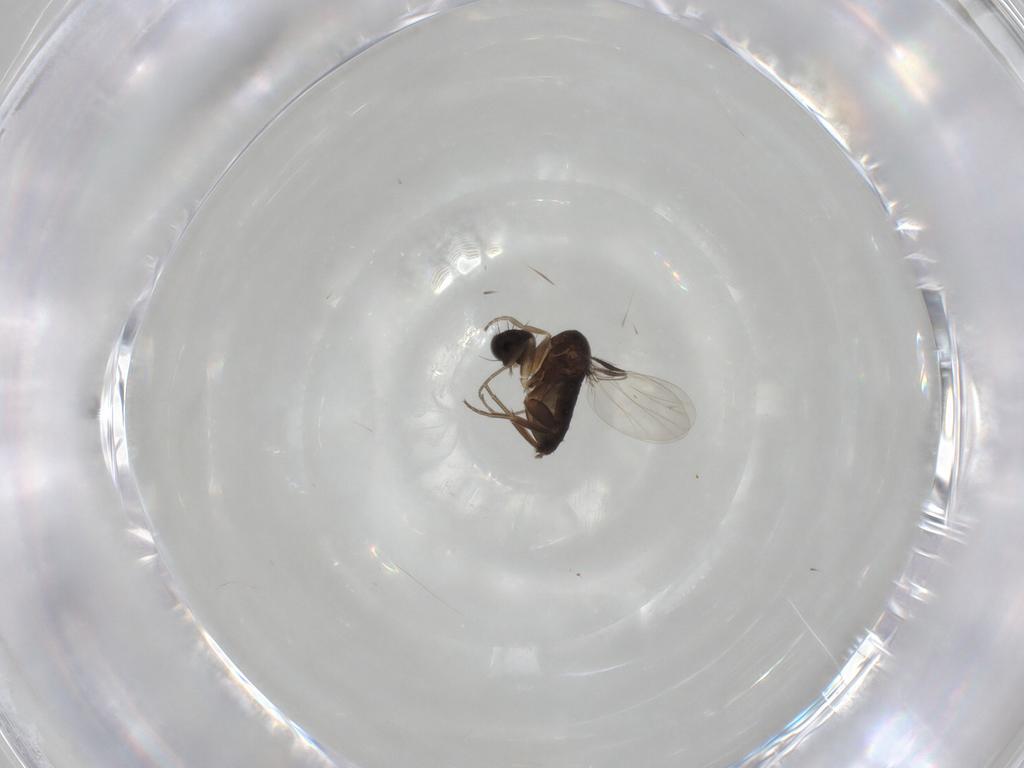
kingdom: Animalia
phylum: Arthropoda
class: Insecta
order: Diptera
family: Phoridae
